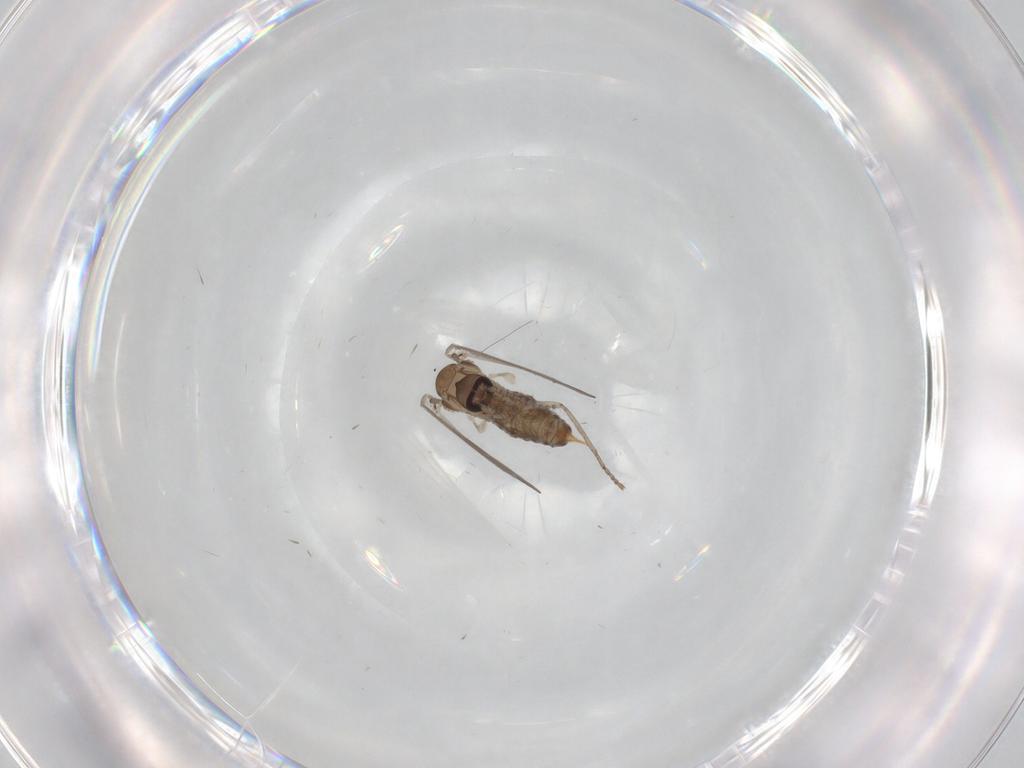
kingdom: Animalia
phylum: Arthropoda
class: Insecta
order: Diptera
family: Psychodidae
